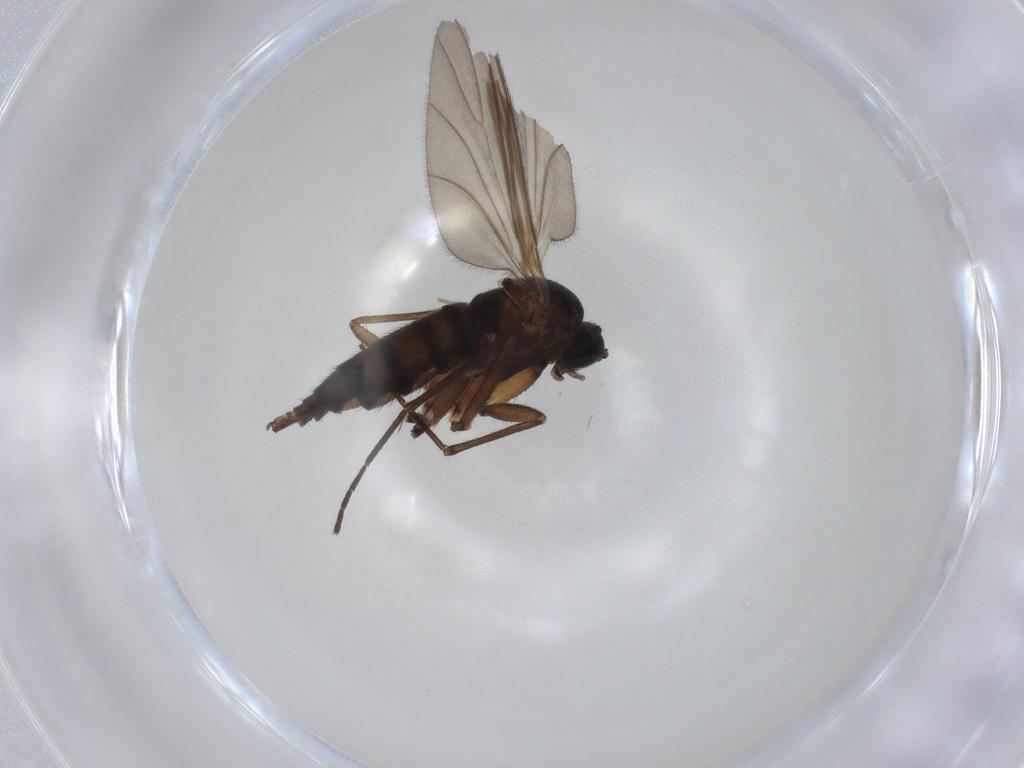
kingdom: Animalia
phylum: Arthropoda
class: Insecta
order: Diptera
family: Sciaridae
